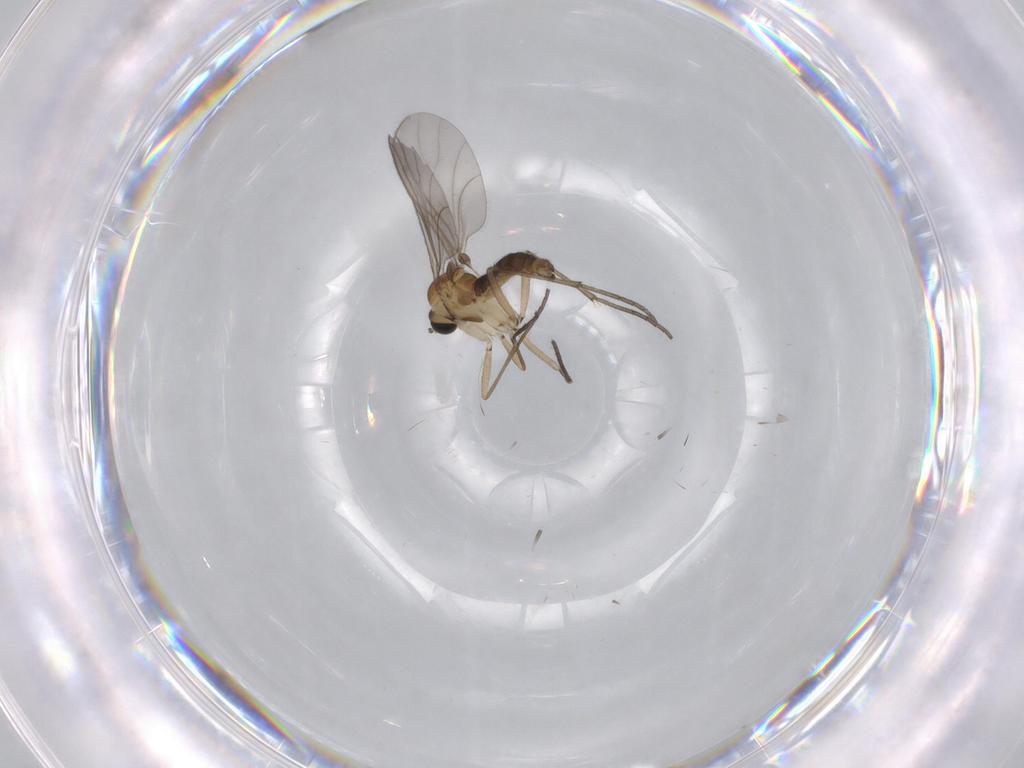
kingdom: Animalia
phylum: Arthropoda
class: Insecta
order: Diptera
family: Sciaridae
